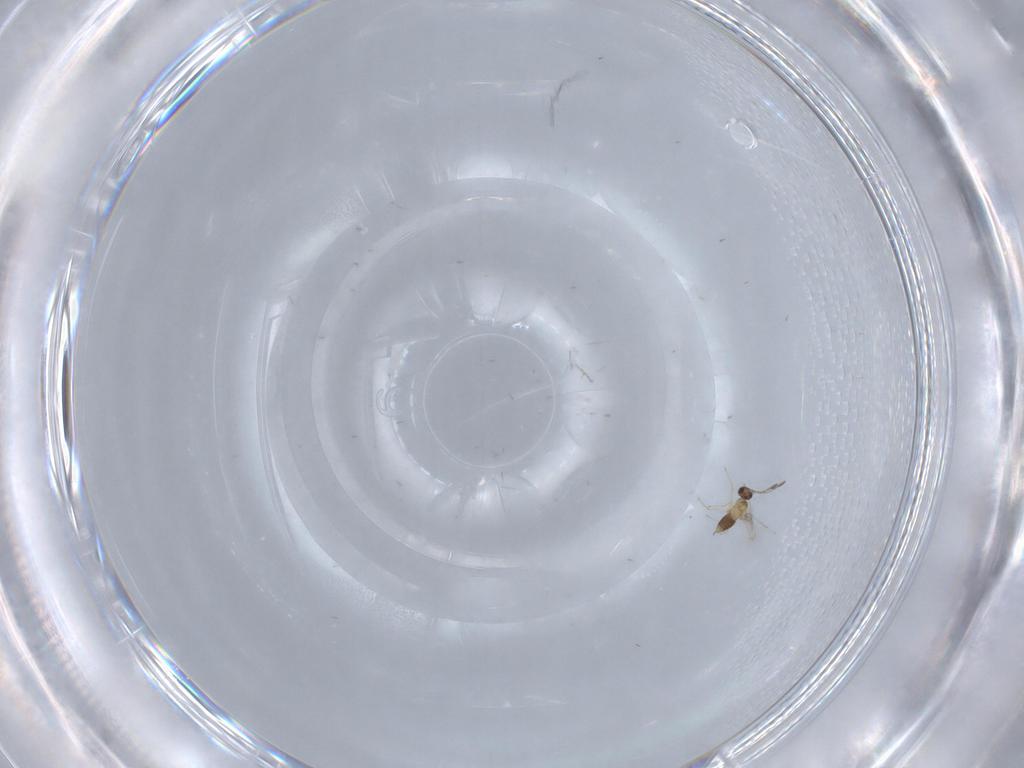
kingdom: Animalia
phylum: Arthropoda
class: Insecta
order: Hymenoptera
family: Mymaridae
